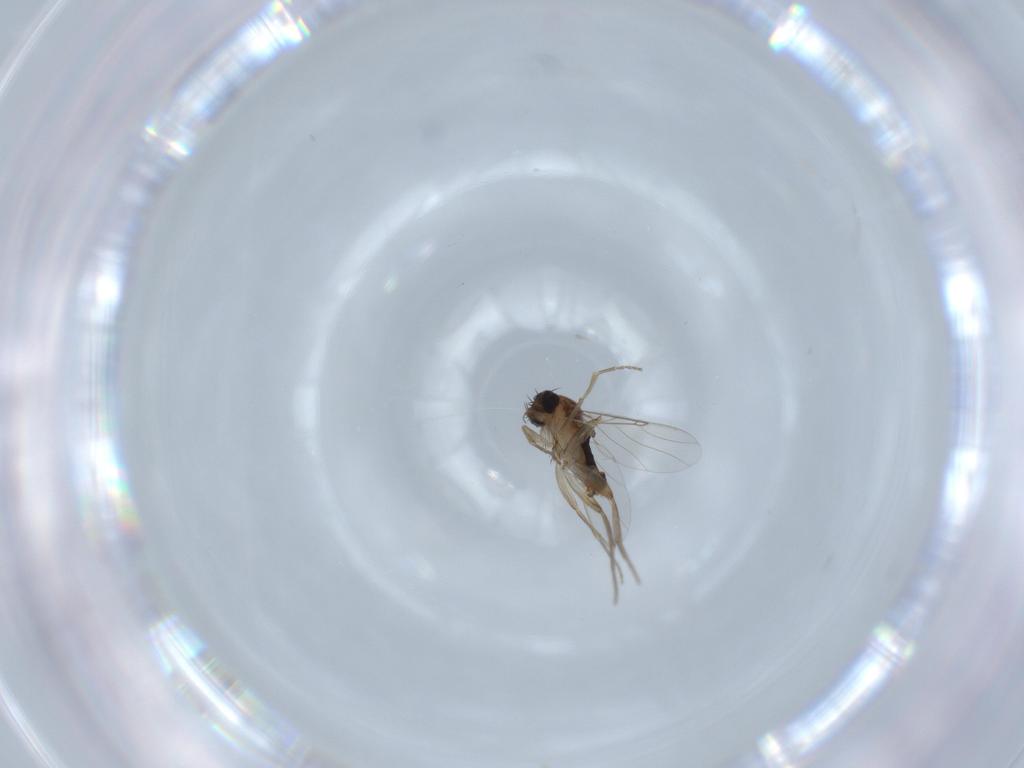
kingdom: Animalia
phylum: Arthropoda
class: Insecta
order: Diptera
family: Phoridae
